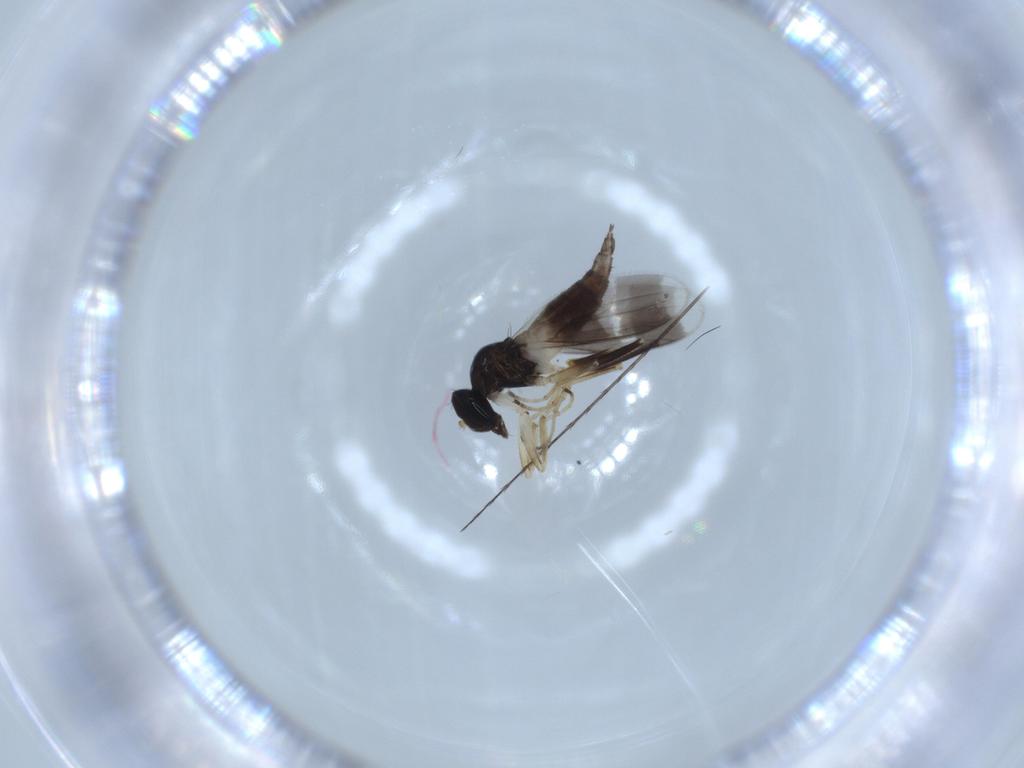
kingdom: Animalia
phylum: Arthropoda
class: Insecta
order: Diptera
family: Hybotidae
